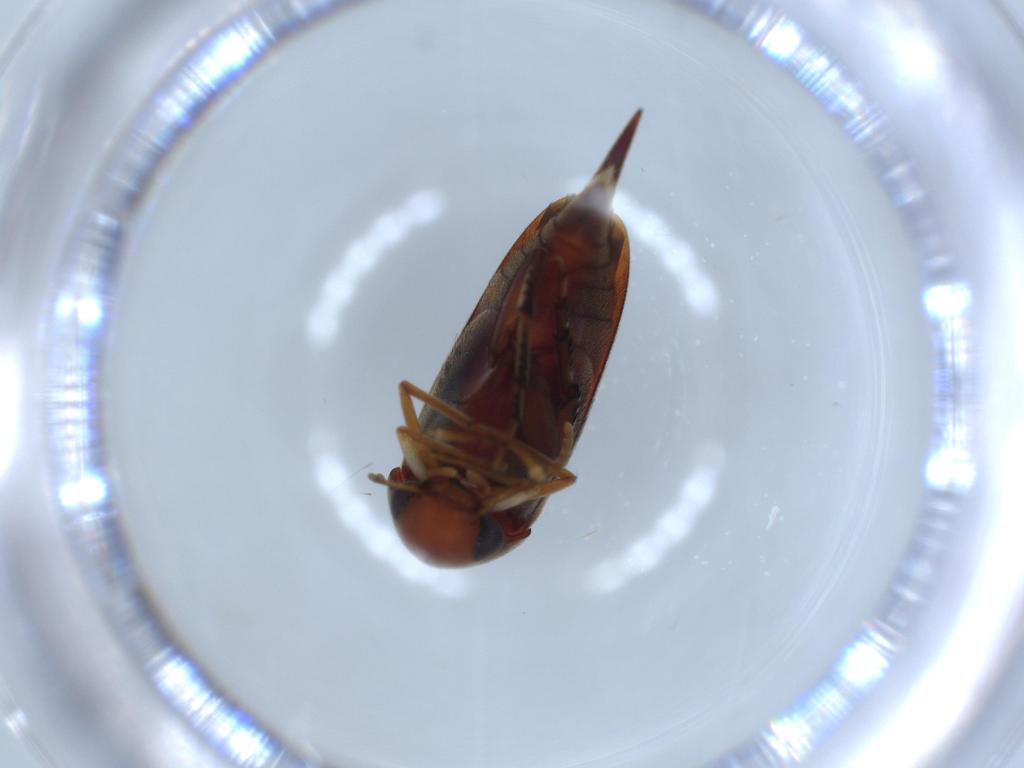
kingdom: Animalia
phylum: Arthropoda
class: Insecta
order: Coleoptera
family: Mordellidae
